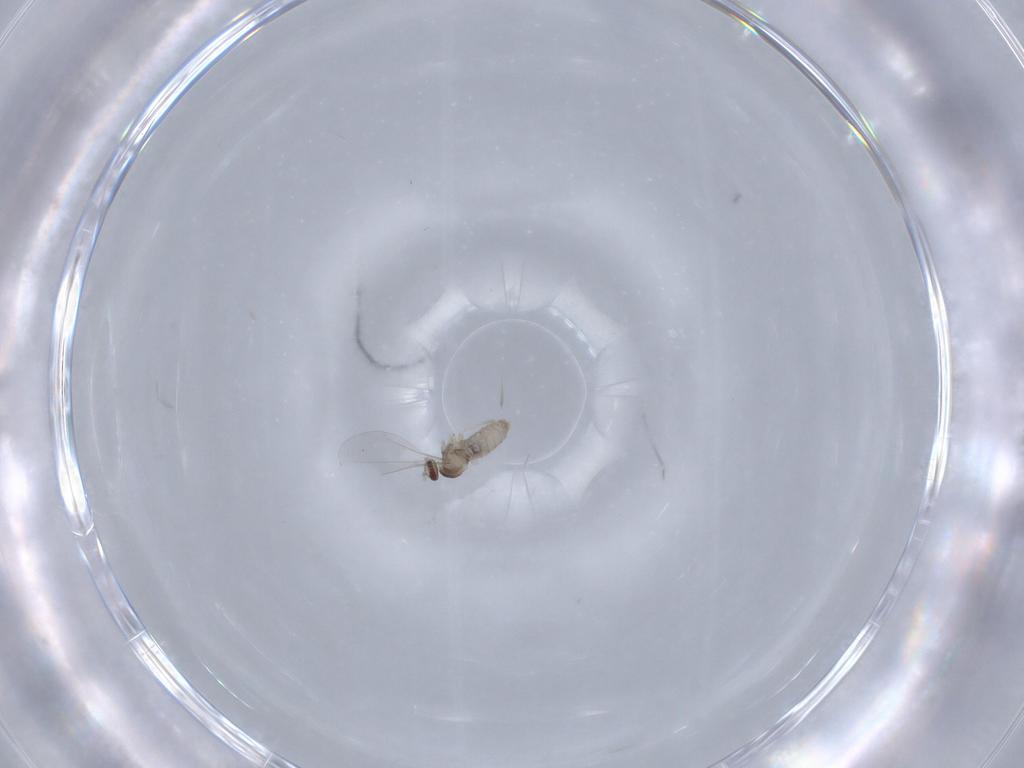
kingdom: Animalia
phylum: Arthropoda
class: Insecta
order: Diptera
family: Cecidomyiidae
